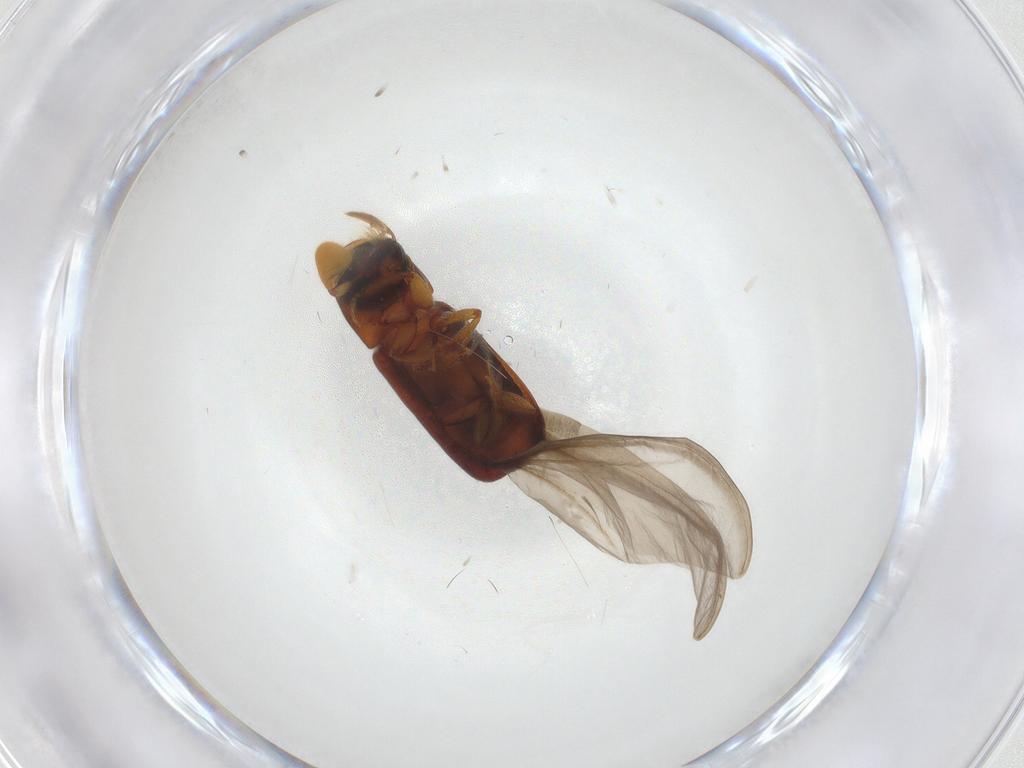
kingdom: Animalia
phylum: Arthropoda
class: Insecta
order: Coleoptera
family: Curculionidae
